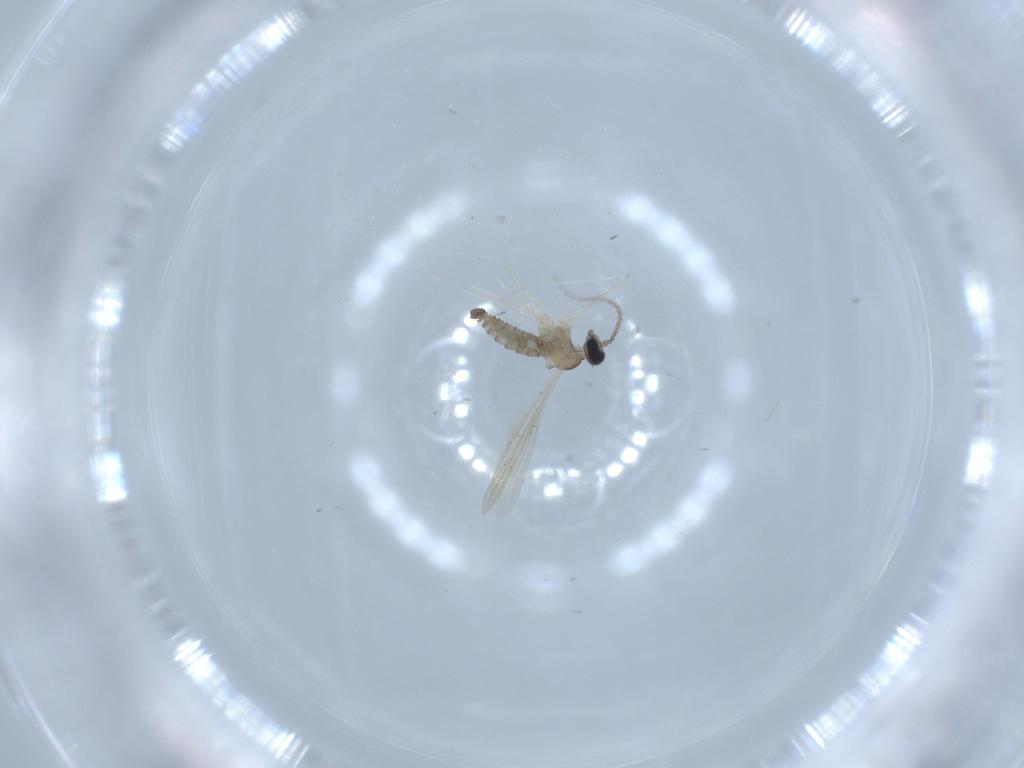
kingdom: Animalia
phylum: Arthropoda
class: Insecta
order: Diptera
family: Cecidomyiidae
